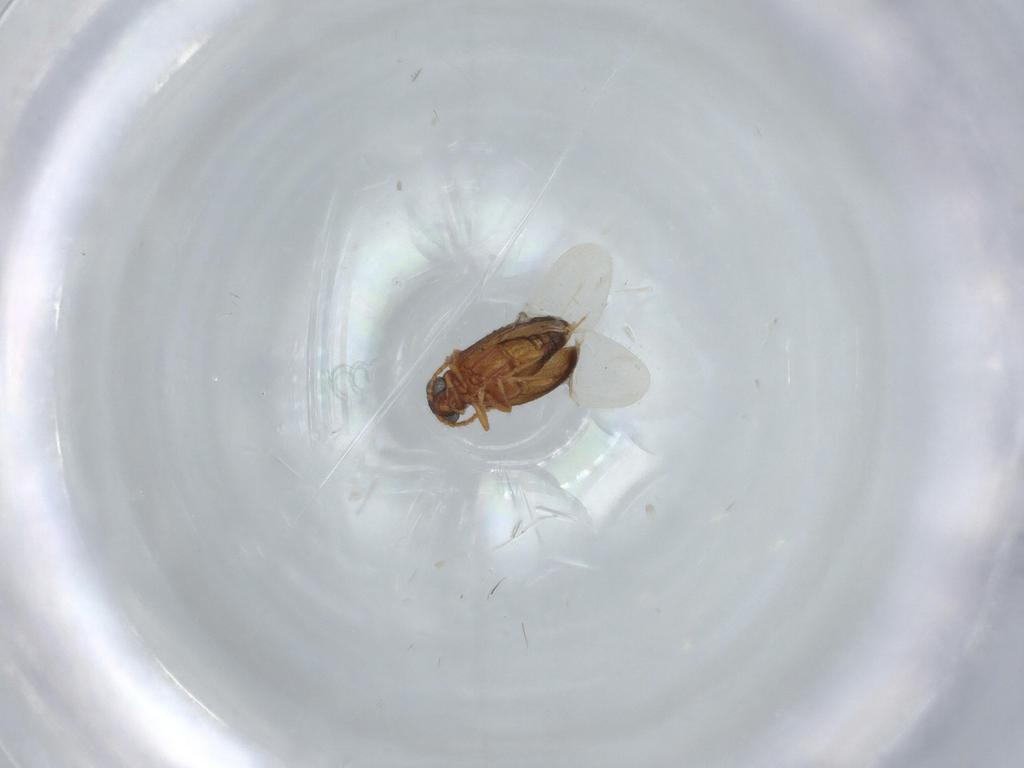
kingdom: Animalia
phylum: Arthropoda
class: Insecta
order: Coleoptera
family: Aderidae
